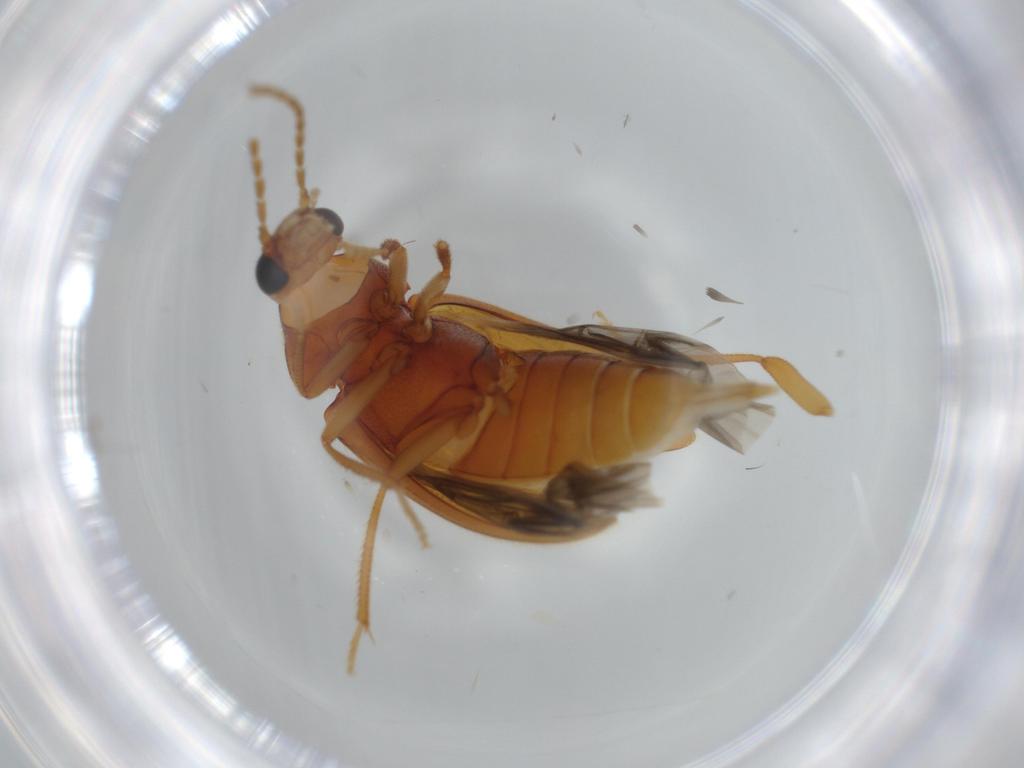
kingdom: Animalia
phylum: Arthropoda
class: Insecta
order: Coleoptera
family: Ptilodactylidae
